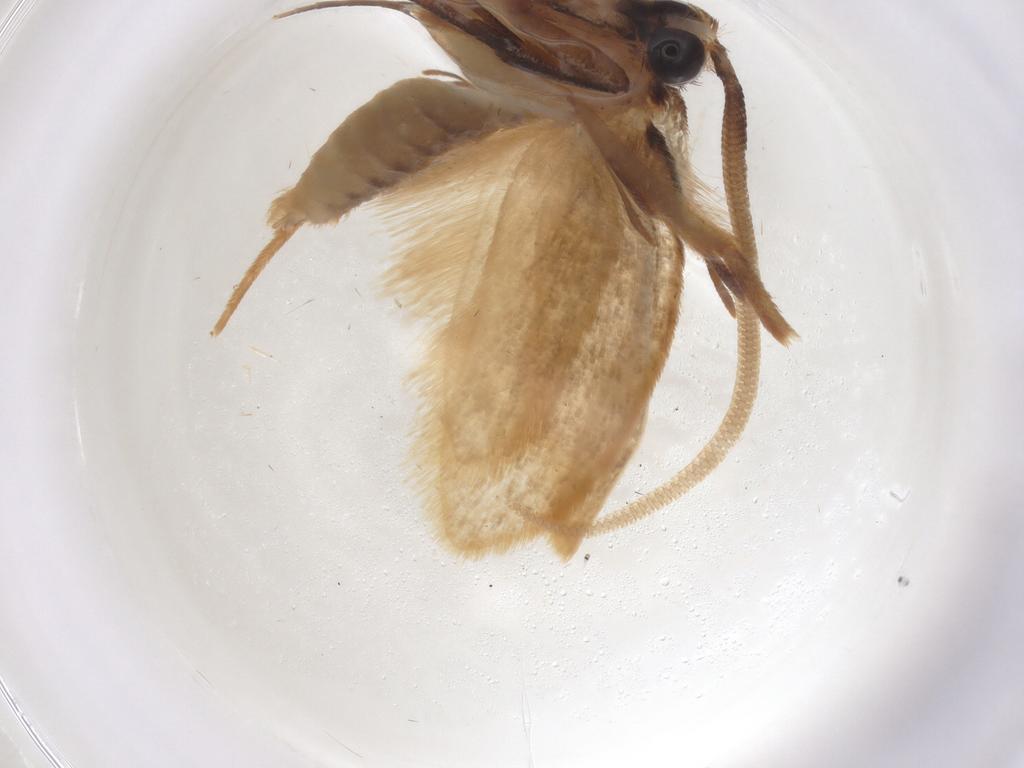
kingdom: Animalia
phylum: Arthropoda
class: Insecta
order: Lepidoptera
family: Tineidae
